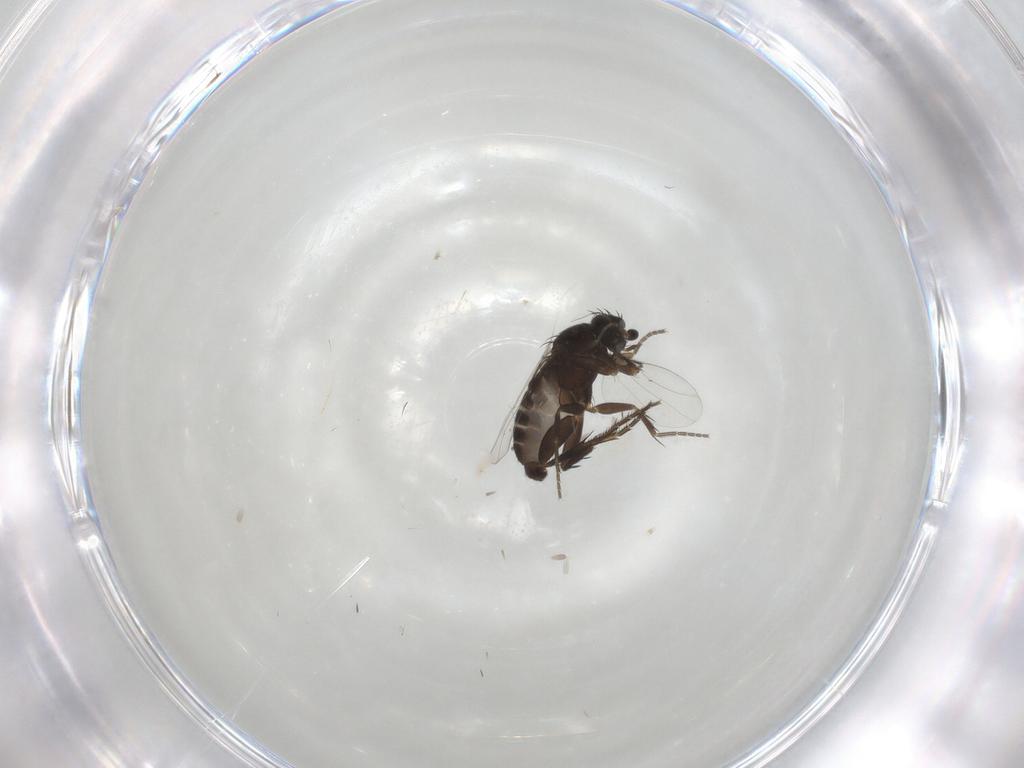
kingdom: Animalia
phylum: Arthropoda
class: Insecta
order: Diptera
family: Phoridae
